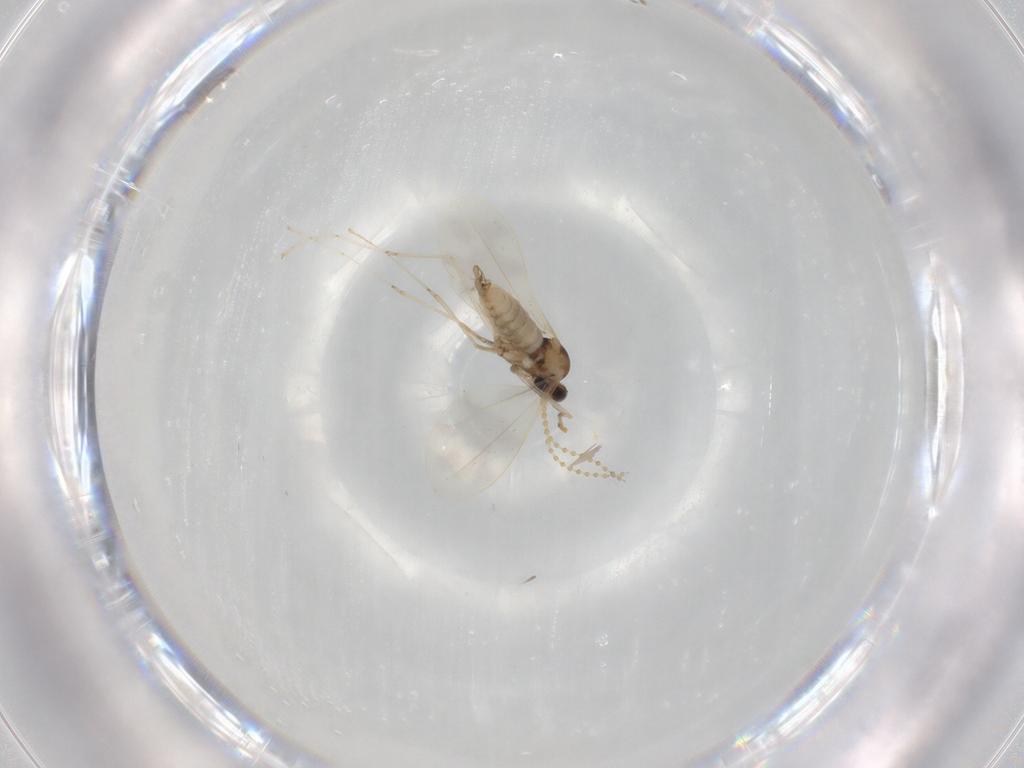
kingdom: Animalia
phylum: Arthropoda
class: Insecta
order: Diptera
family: Cecidomyiidae
